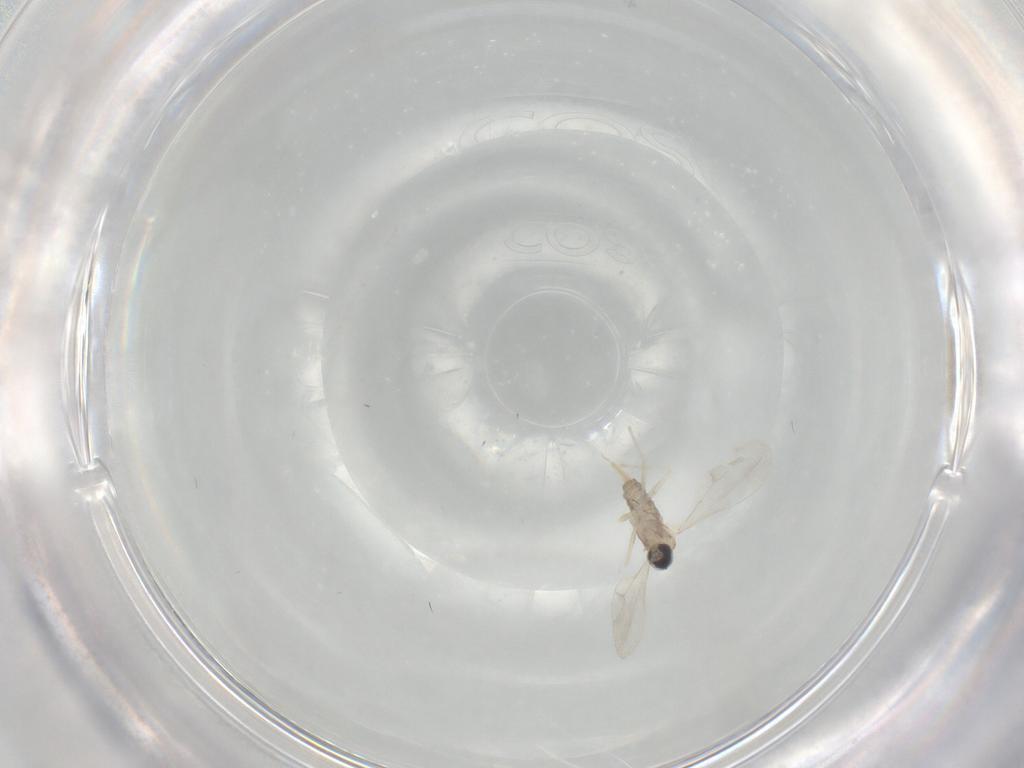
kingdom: Animalia
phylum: Arthropoda
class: Insecta
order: Diptera
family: Cecidomyiidae
